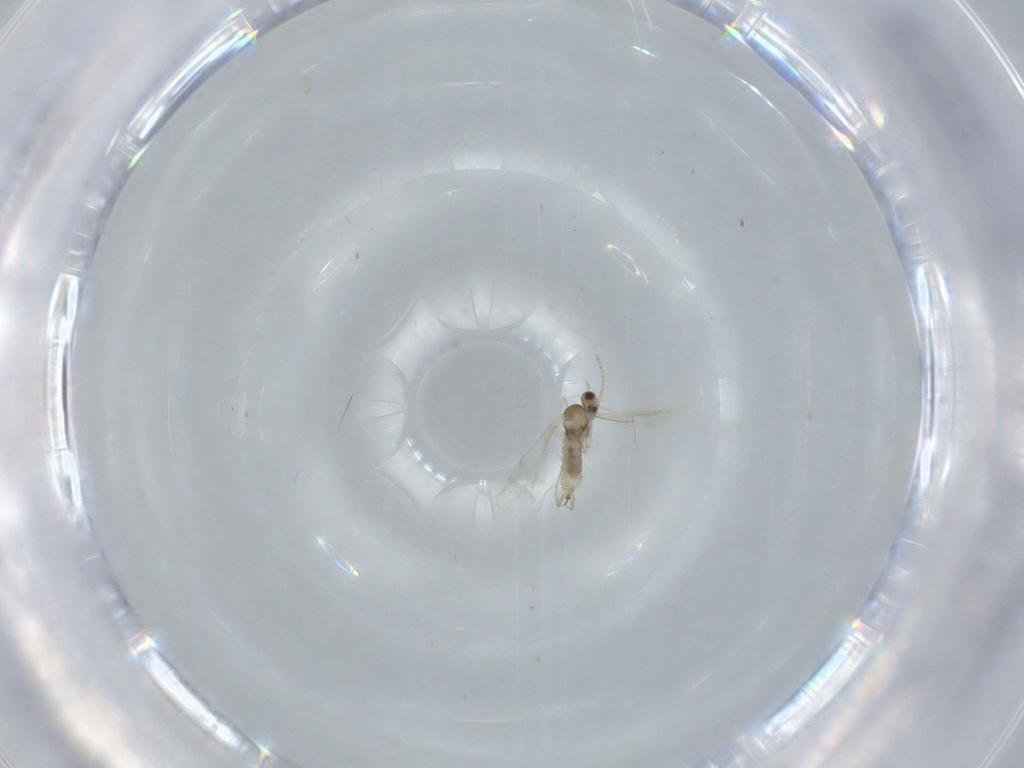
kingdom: Animalia
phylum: Arthropoda
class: Insecta
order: Diptera
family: Cecidomyiidae
